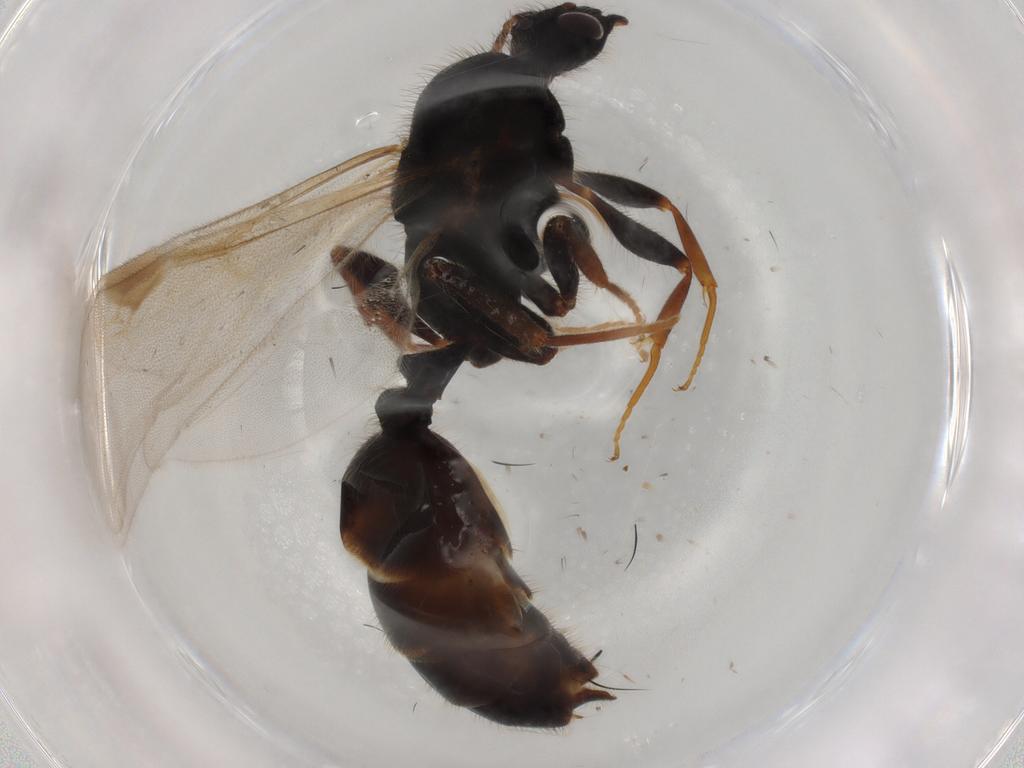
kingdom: Animalia
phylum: Arthropoda
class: Insecta
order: Hymenoptera
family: Formicidae
